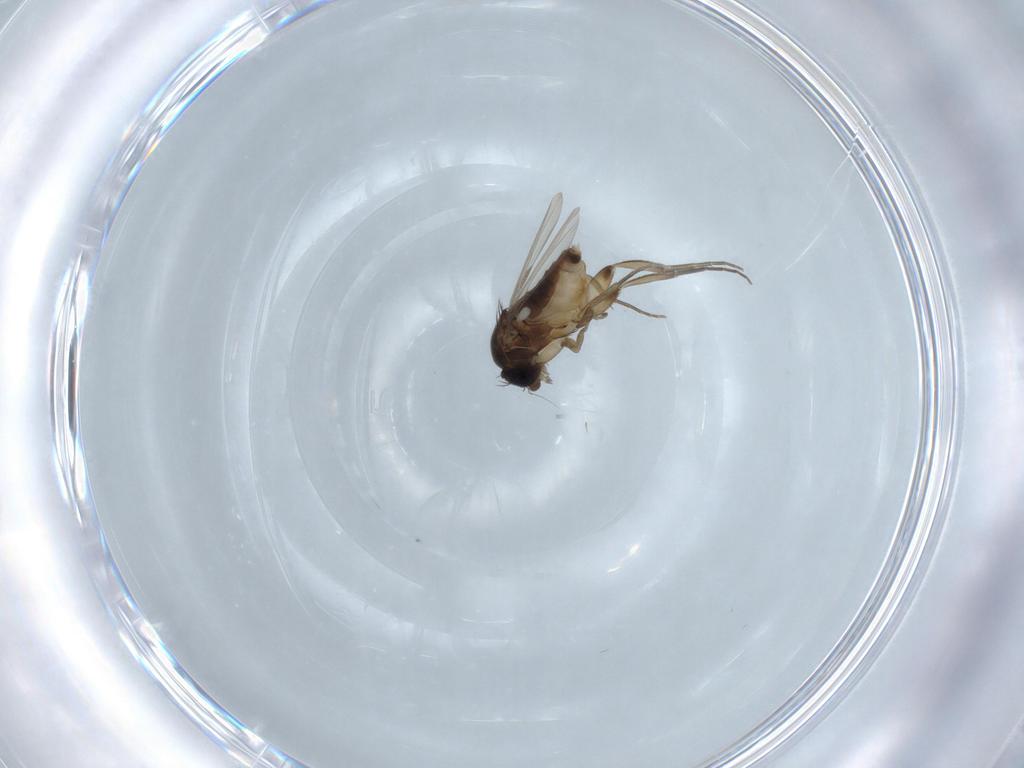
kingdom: Animalia
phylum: Arthropoda
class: Insecta
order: Diptera
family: Phoridae
